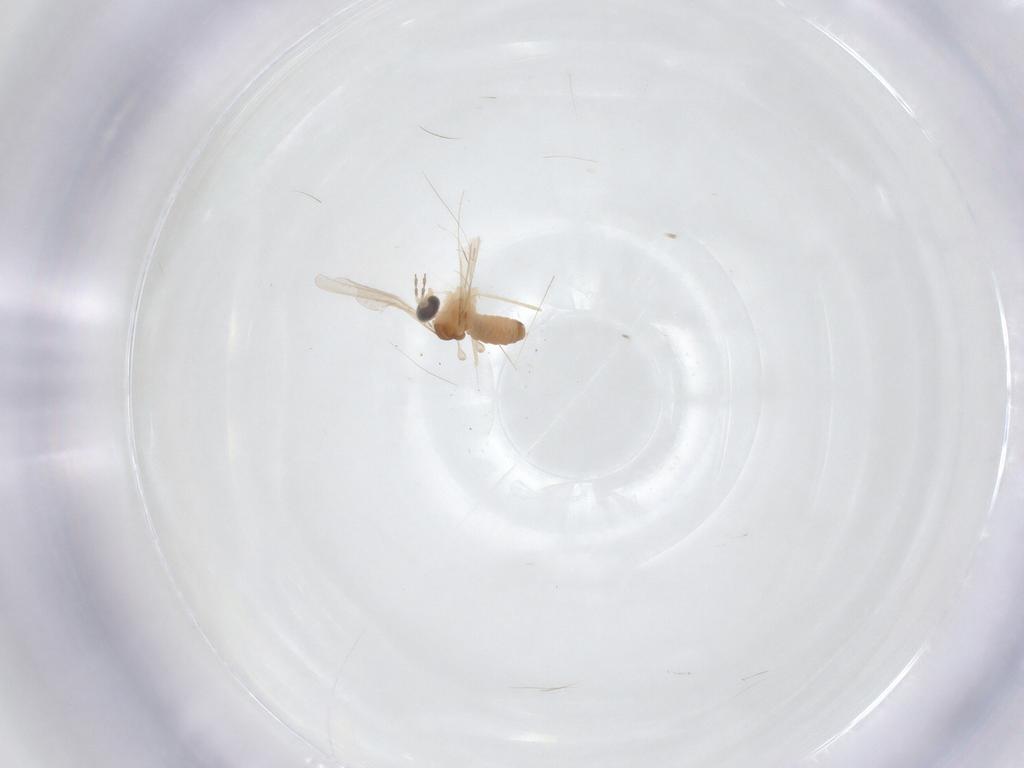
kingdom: Animalia
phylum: Arthropoda
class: Insecta
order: Diptera
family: Cecidomyiidae
